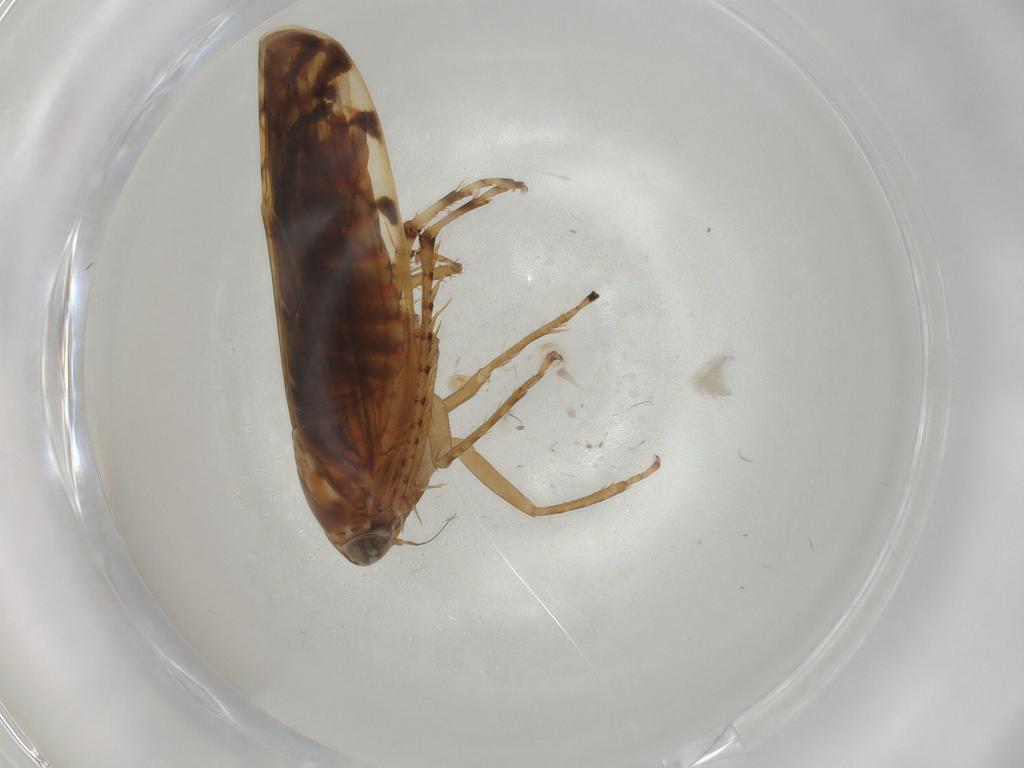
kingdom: Animalia
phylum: Arthropoda
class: Insecta
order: Hemiptera
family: Cicadellidae
